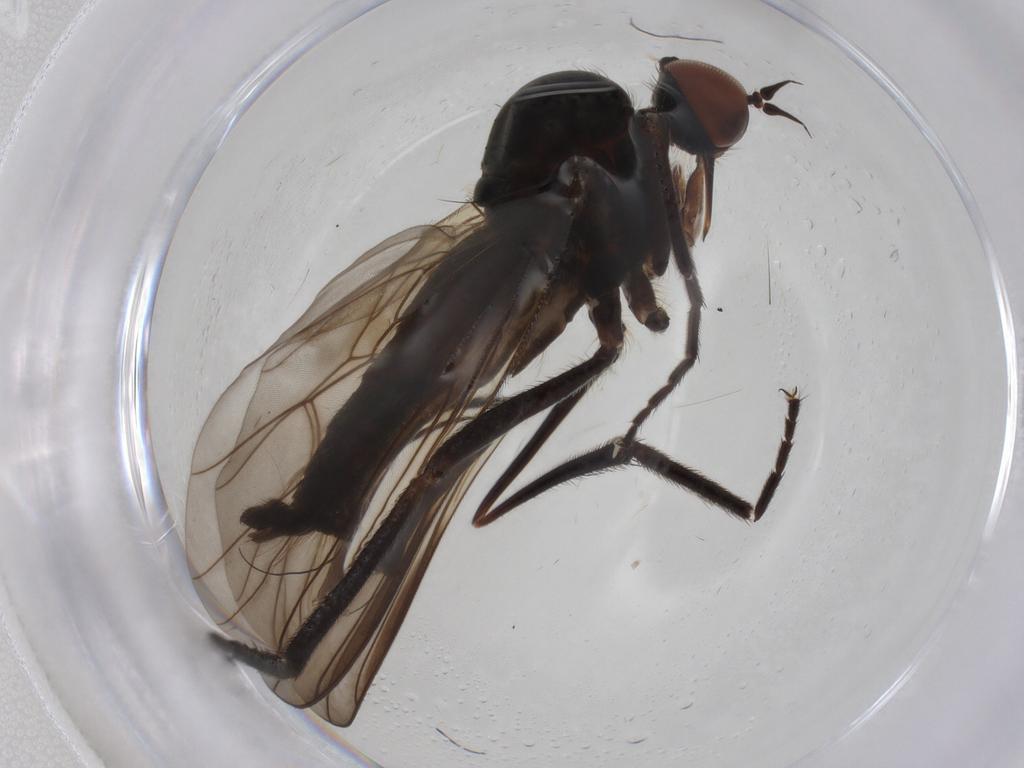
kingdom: Animalia
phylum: Arthropoda
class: Insecta
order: Diptera
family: Empididae
